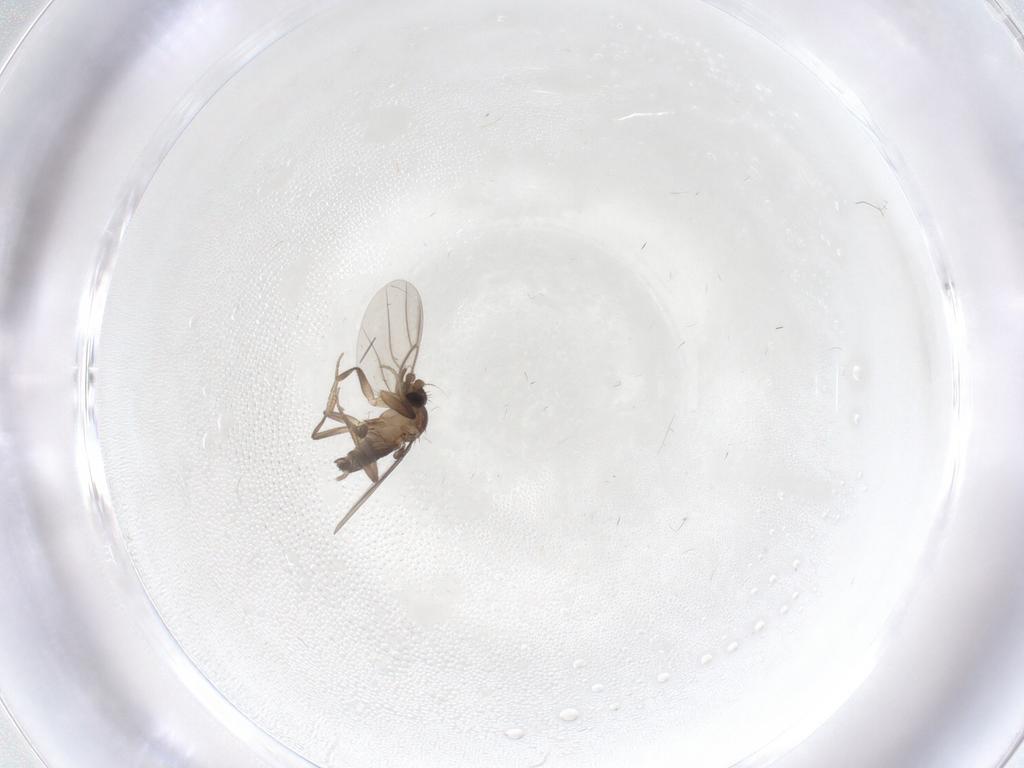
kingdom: Animalia
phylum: Arthropoda
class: Insecta
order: Diptera
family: Phoridae
